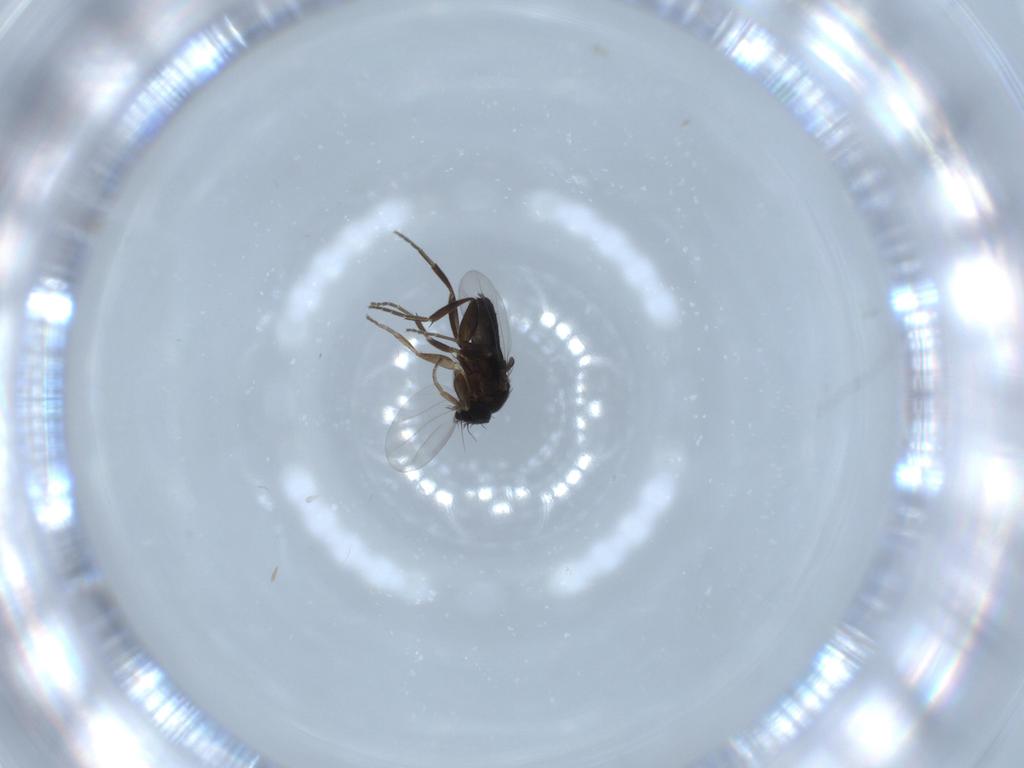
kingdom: Animalia
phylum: Arthropoda
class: Insecta
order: Diptera
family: Phoridae
